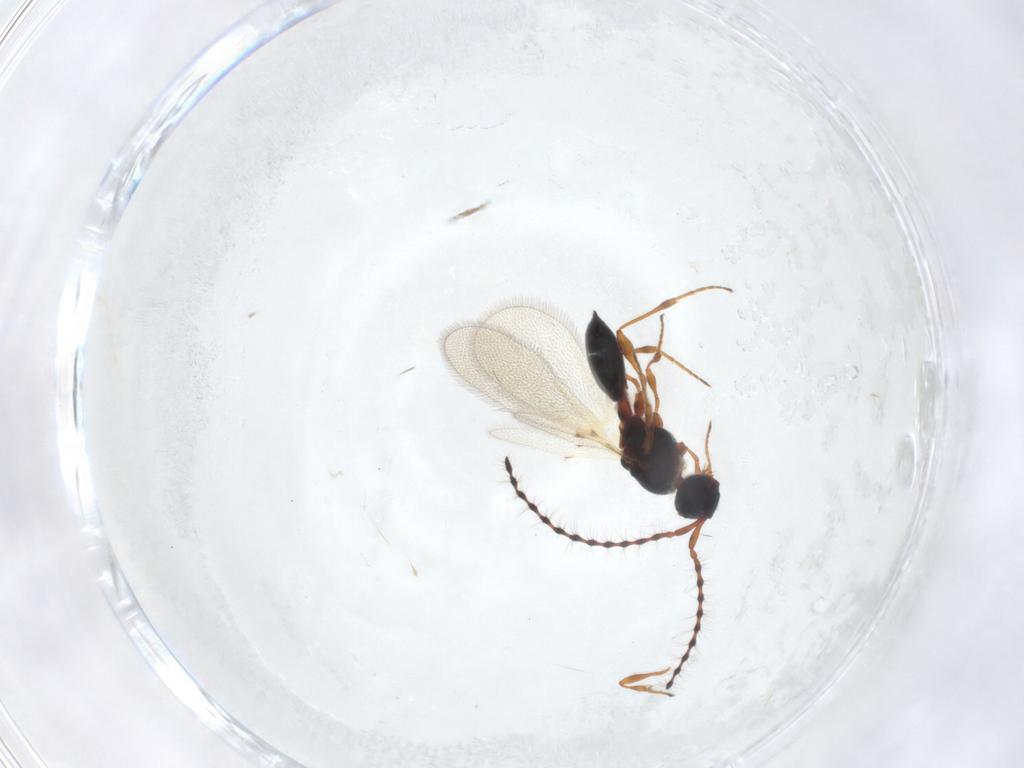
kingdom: Animalia
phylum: Arthropoda
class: Insecta
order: Hymenoptera
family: Diapriidae
